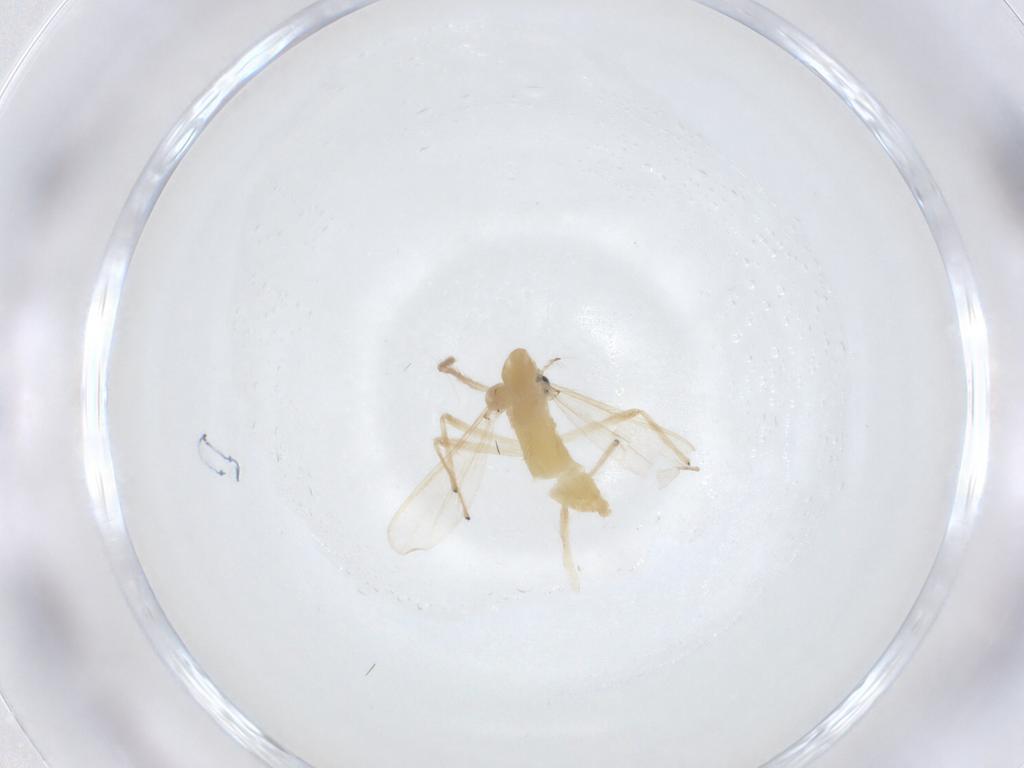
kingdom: Animalia
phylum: Arthropoda
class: Insecta
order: Diptera
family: Chironomidae
